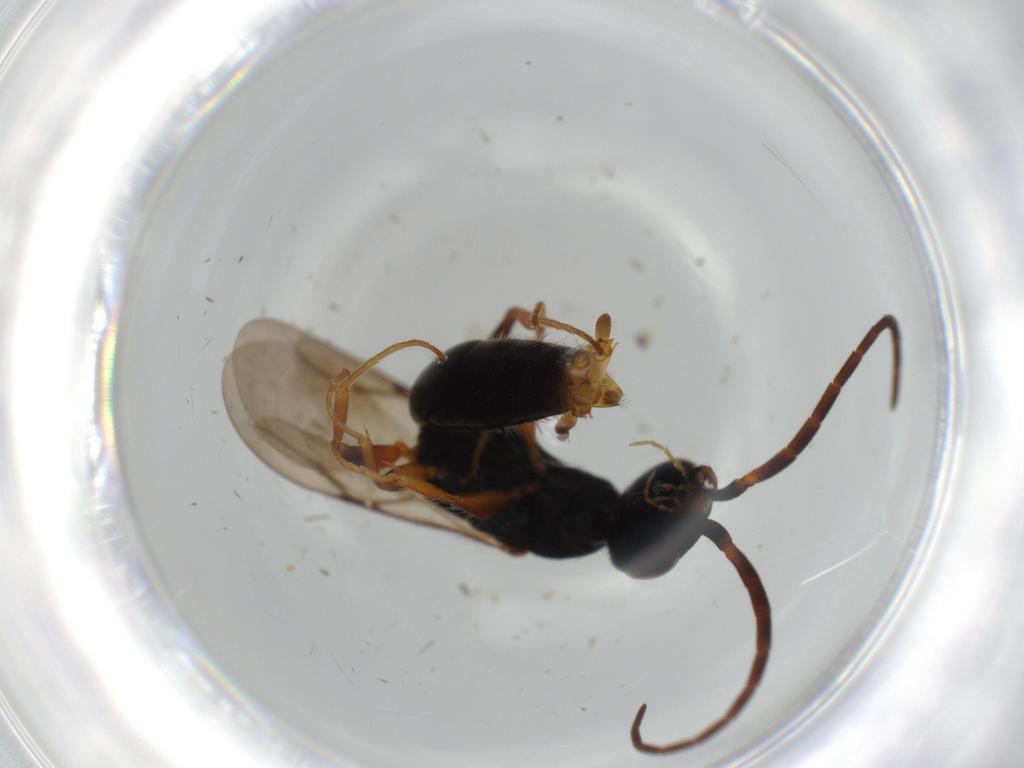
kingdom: Animalia
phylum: Arthropoda
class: Insecta
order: Hymenoptera
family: Bethylidae
